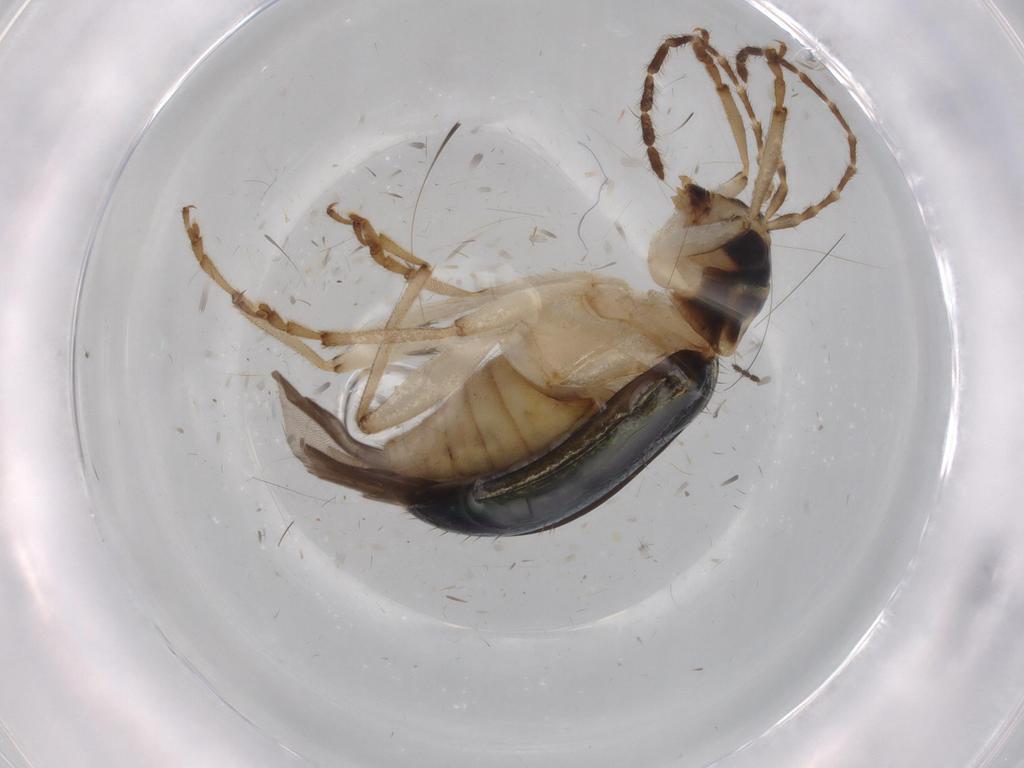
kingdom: Animalia
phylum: Arthropoda
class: Insecta
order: Coleoptera
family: Chrysomelidae
